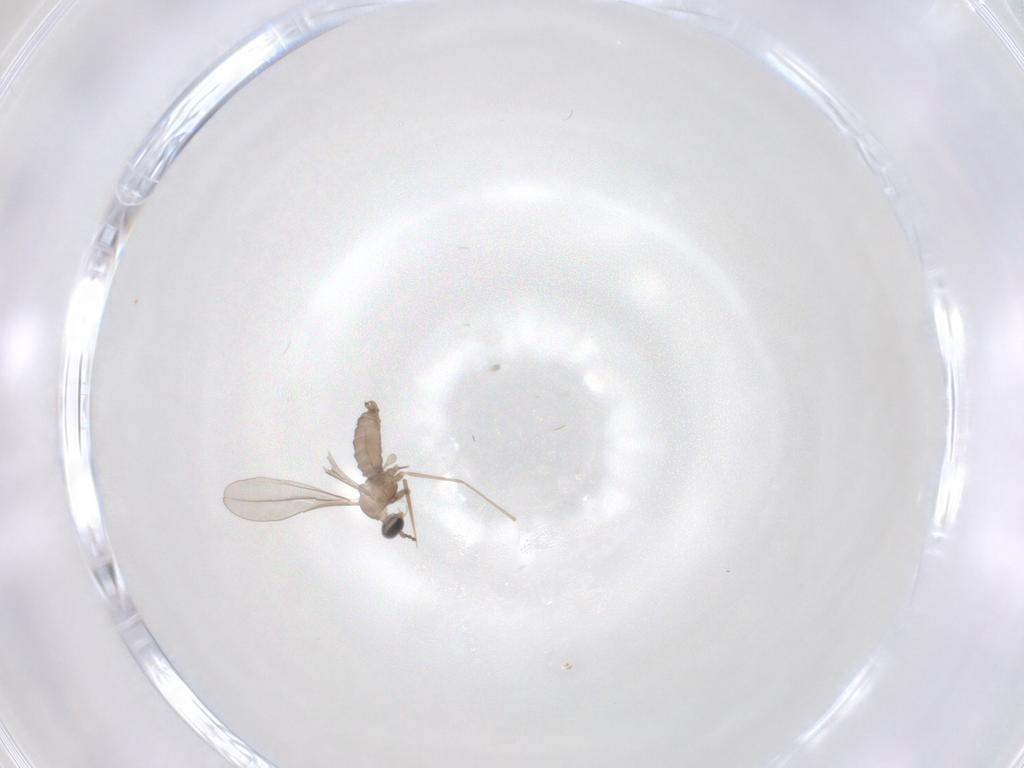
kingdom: Animalia
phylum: Arthropoda
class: Insecta
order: Diptera
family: Cecidomyiidae
